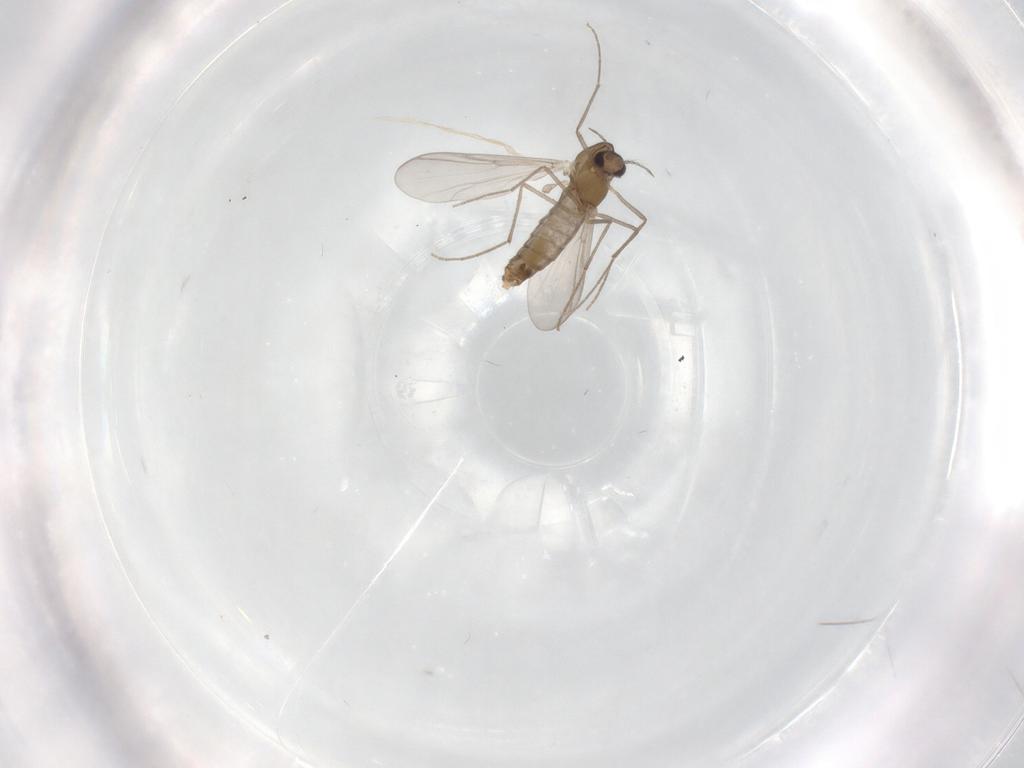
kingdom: Animalia
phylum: Arthropoda
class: Insecta
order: Diptera
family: Chironomidae
